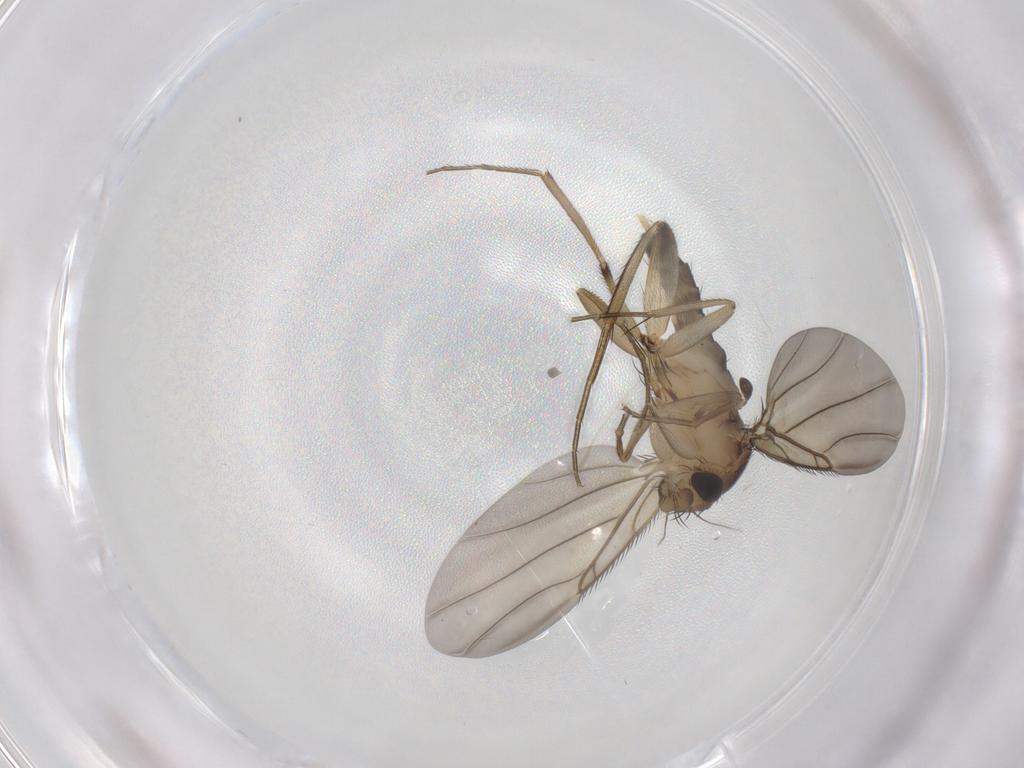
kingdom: Animalia
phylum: Arthropoda
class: Insecta
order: Diptera
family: Phoridae
